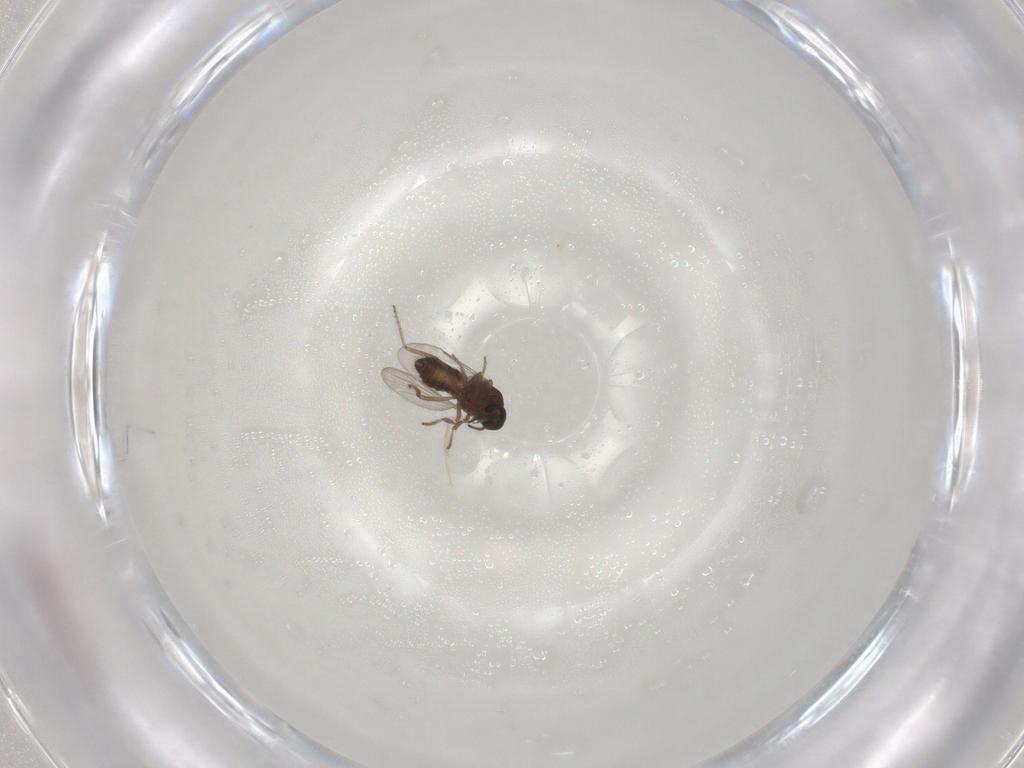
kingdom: Animalia
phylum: Arthropoda
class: Insecta
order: Diptera
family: Ceratopogonidae
